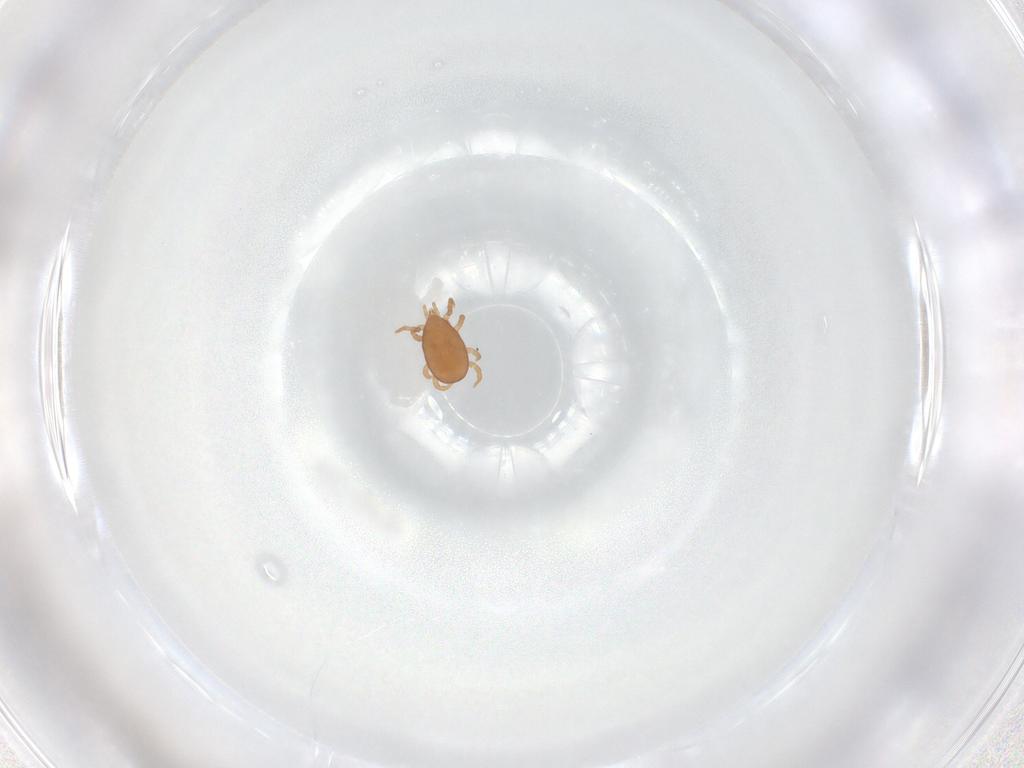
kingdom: Animalia
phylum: Arthropoda
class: Arachnida
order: Mesostigmata
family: Eviphididae
